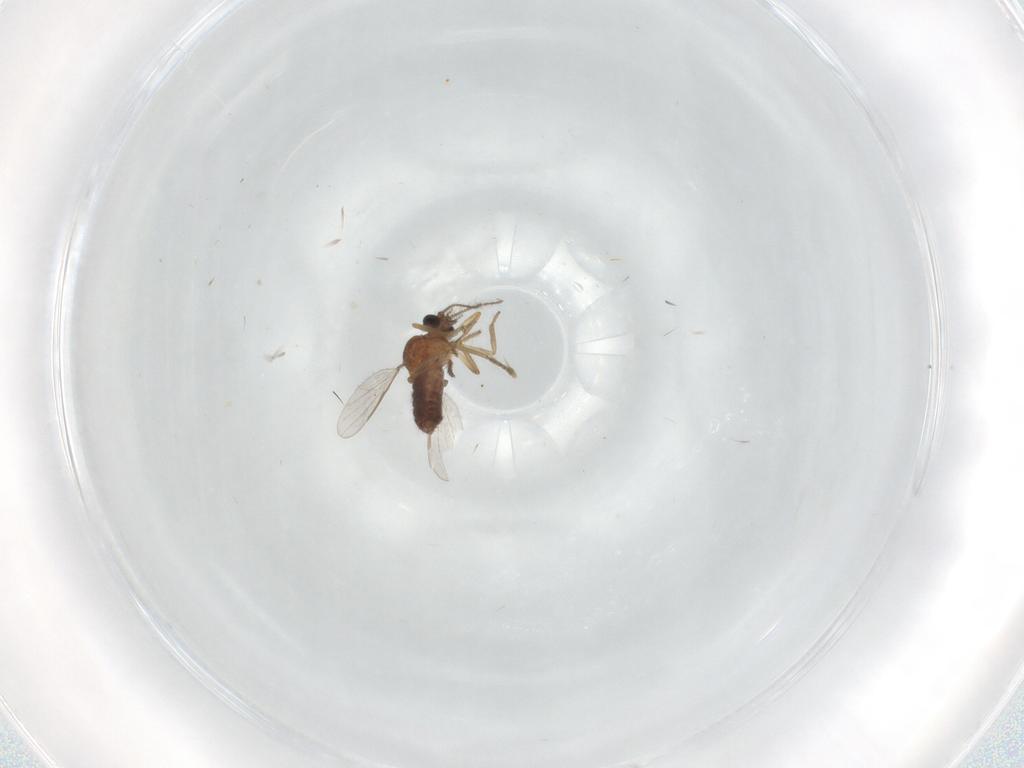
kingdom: Animalia
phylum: Arthropoda
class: Insecta
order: Diptera
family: Ceratopogonidae
